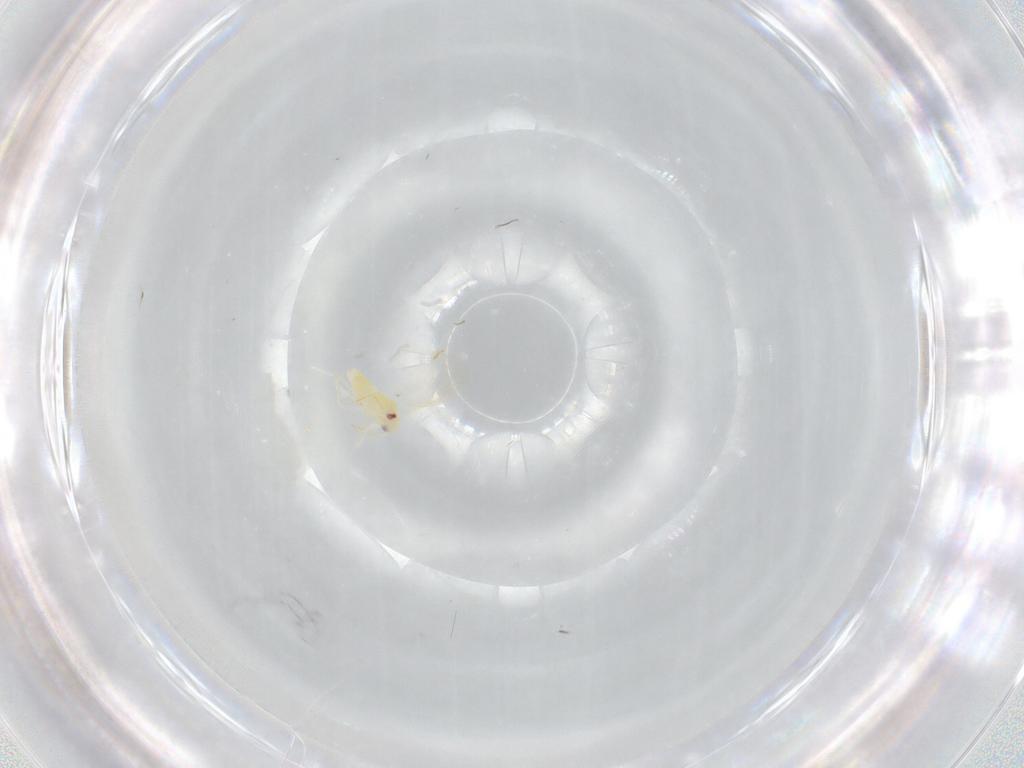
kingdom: Animalia
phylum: Arthropoda
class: Insecta
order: Hemiptera
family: Aleyrodidae
